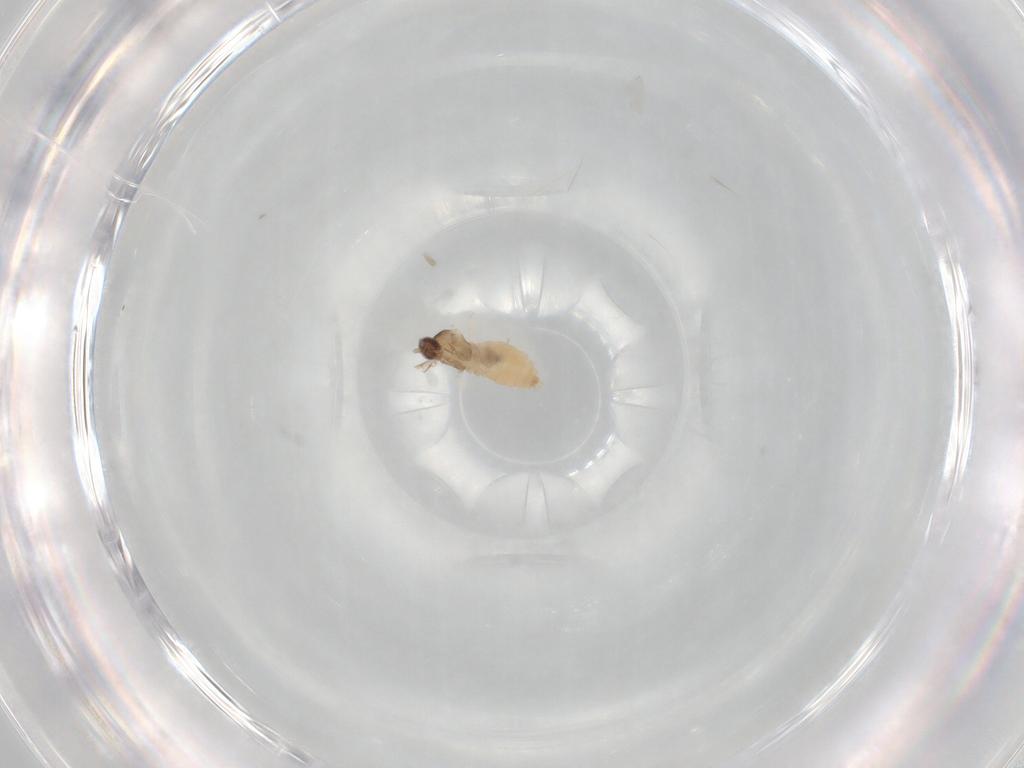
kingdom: Animalia
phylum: Arthropoda
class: Insecta
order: Diptera
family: Cecidomyiidae
